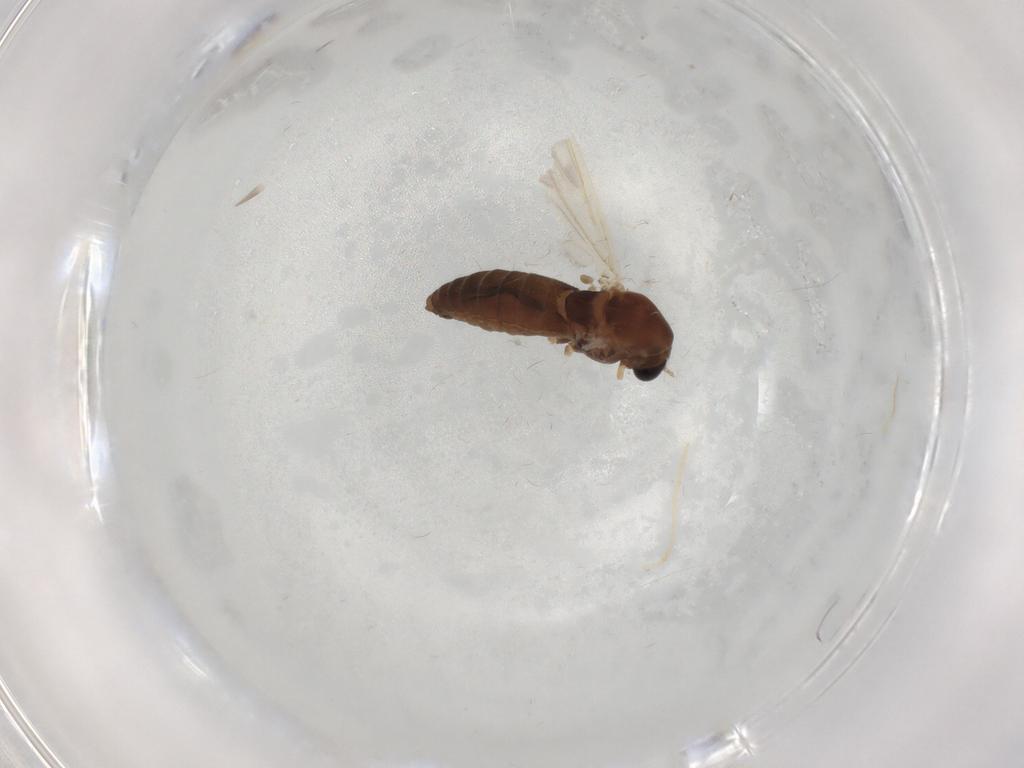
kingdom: Animalia
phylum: Arthropoda
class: Insecta
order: Diptera
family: Chironomidae
